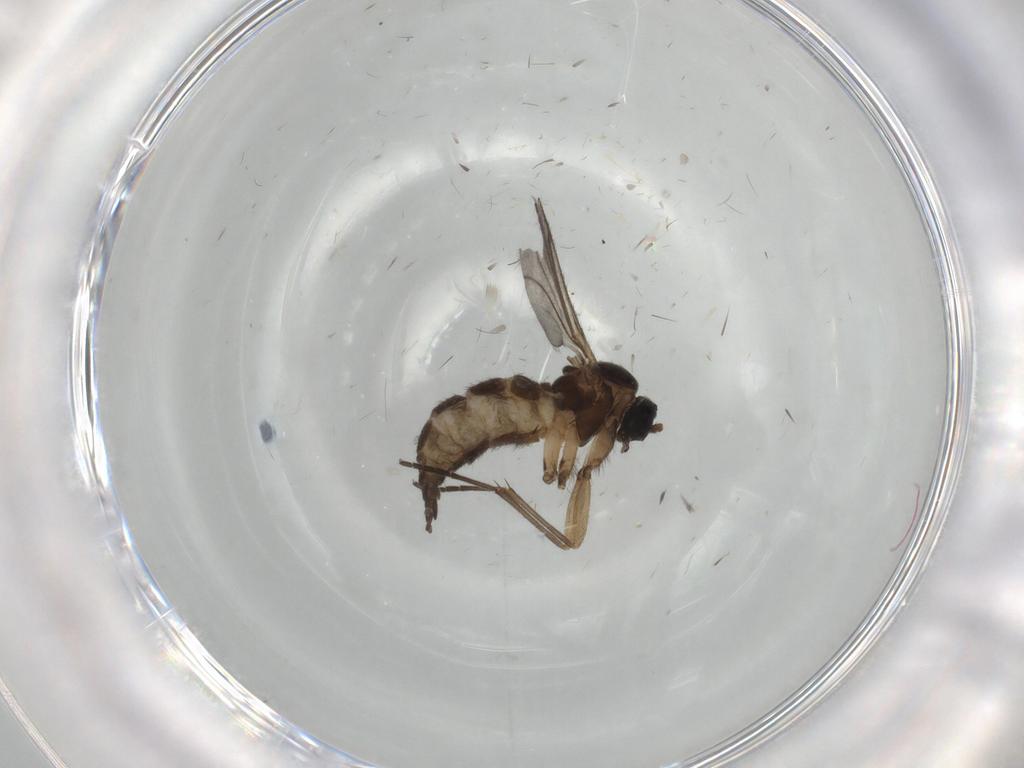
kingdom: Animalia
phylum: Arthropoda
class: Insecta
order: Diptera
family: Sciaridae
